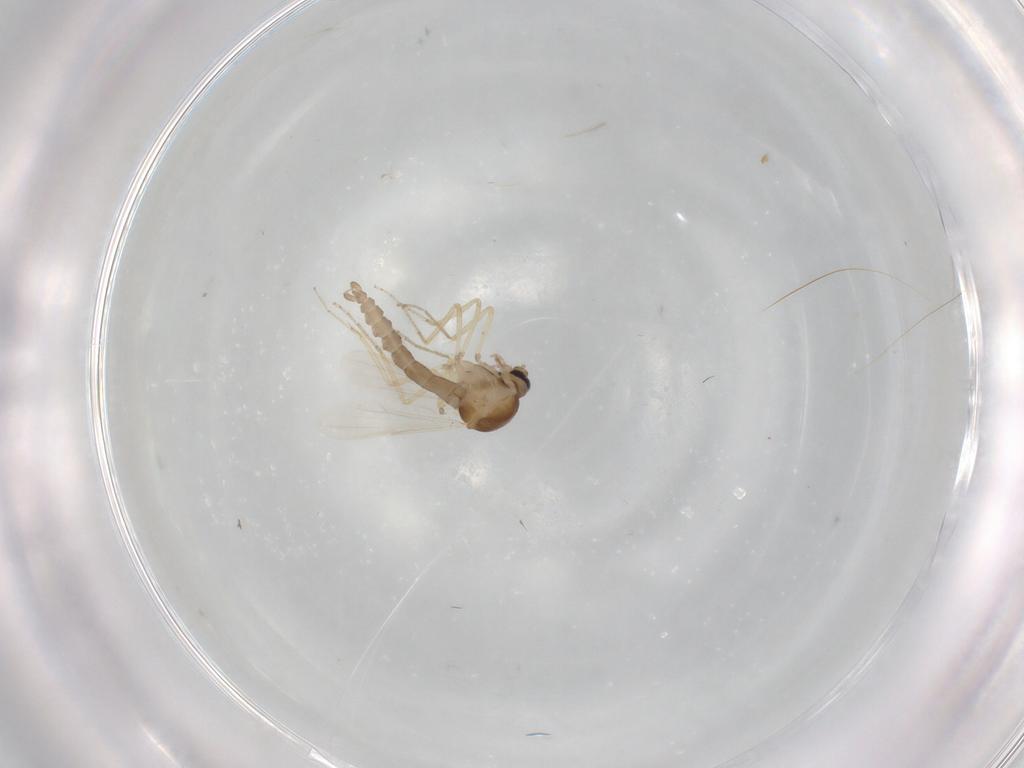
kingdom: Animalia
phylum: Arthropoda
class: Insecta
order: Diptera
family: Ceratopogonidae
